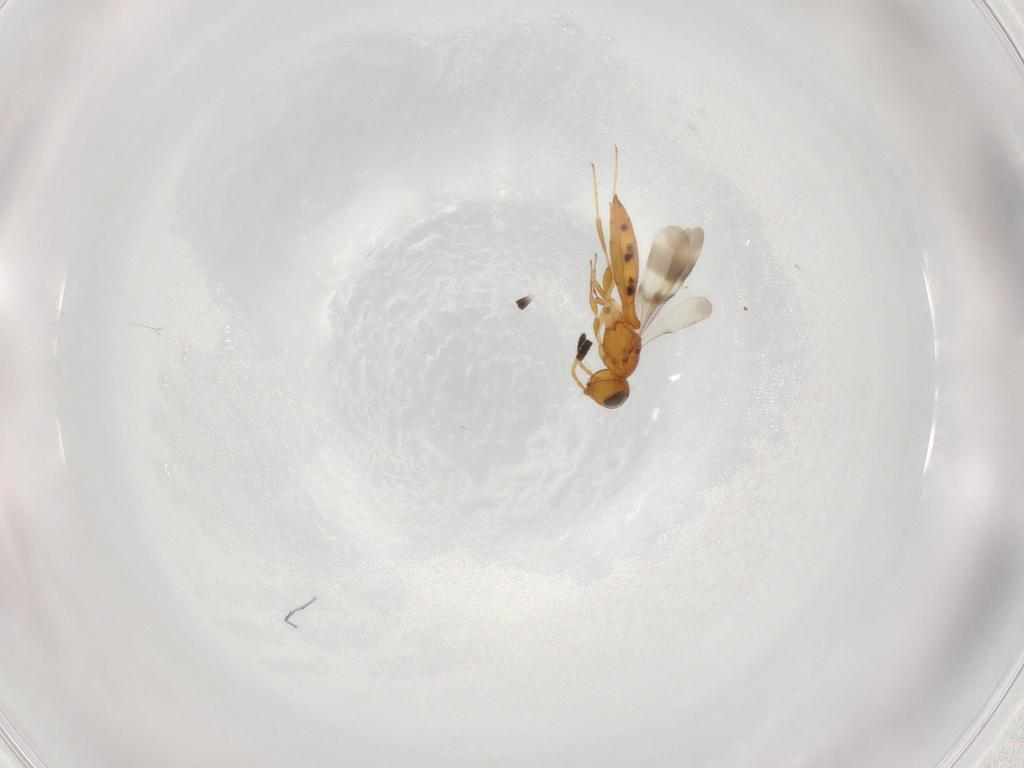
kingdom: Animalia
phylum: Arthropoda
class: Insecta
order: Hymenoptera
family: Scelionidae
